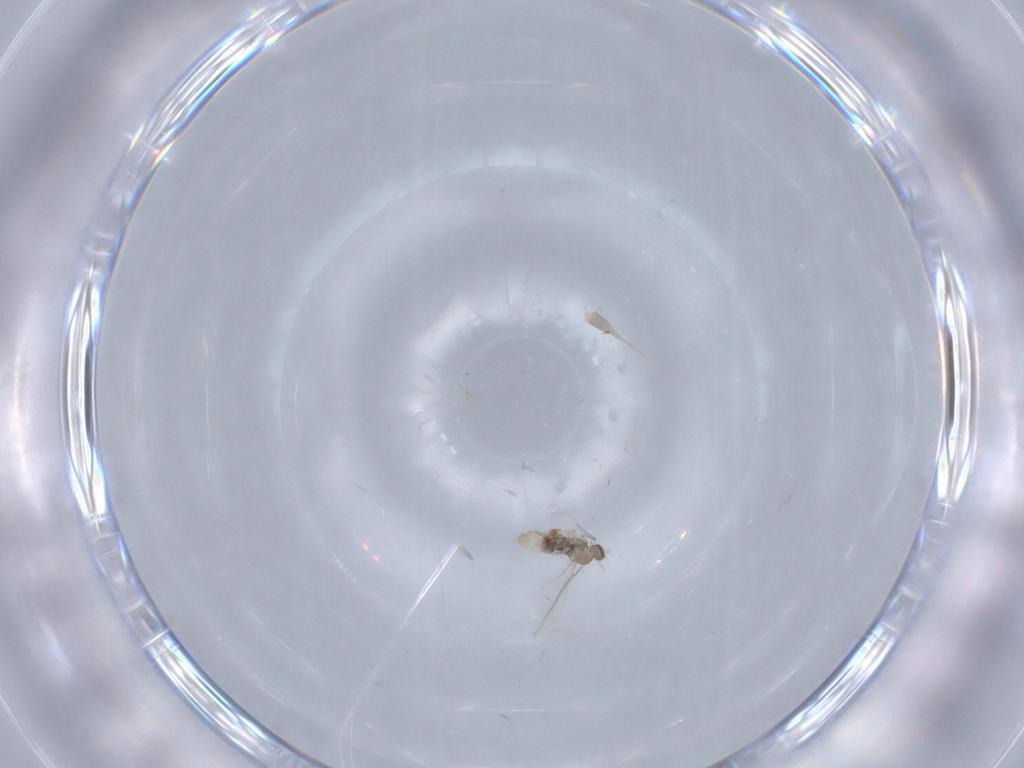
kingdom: Animalia
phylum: Arthropoda
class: Insecta
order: Diptera
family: Cecidomyiidae
